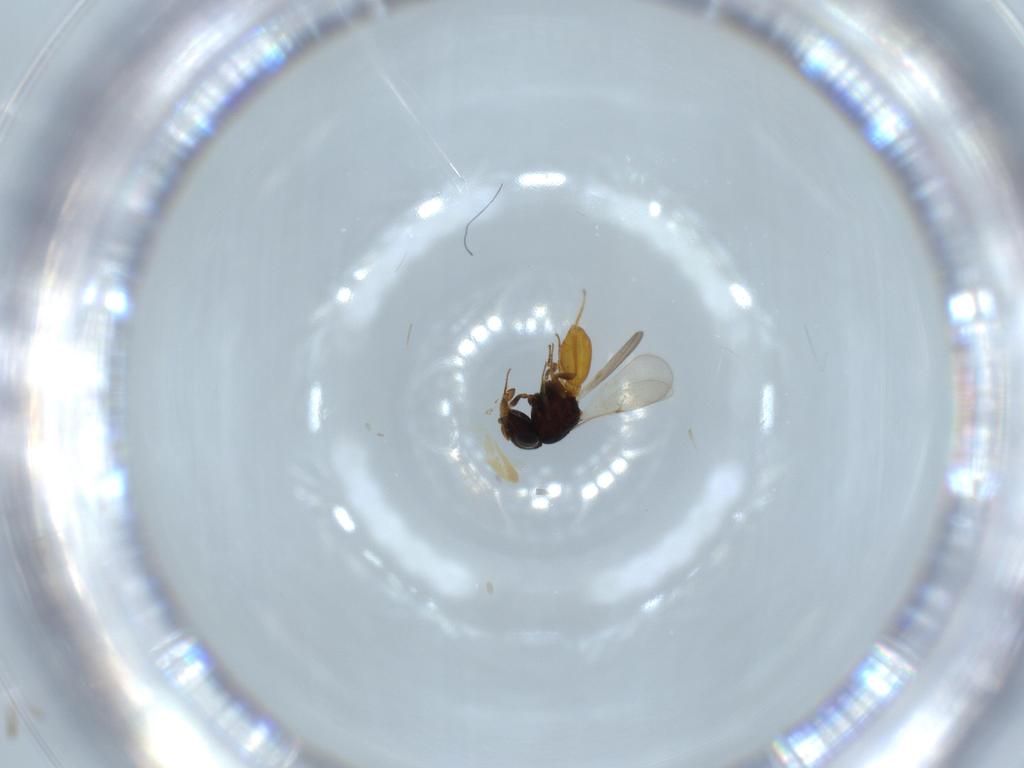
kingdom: Animalia
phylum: Arthropoda
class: Insecta
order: Hymenoptera
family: Scelionidae
